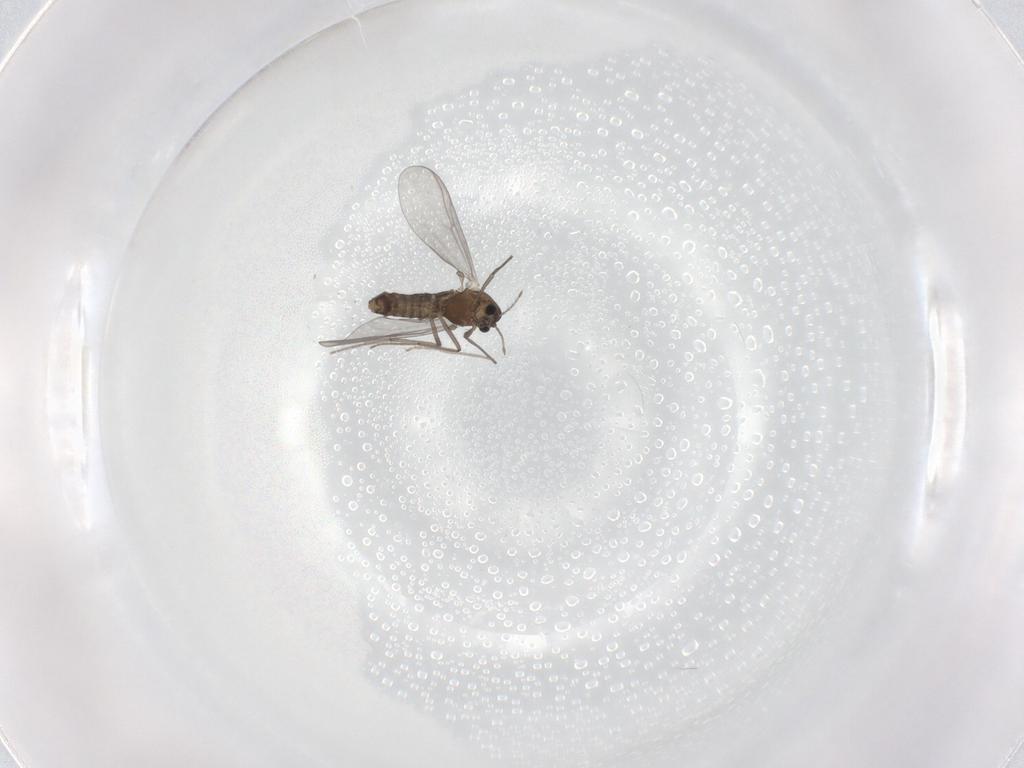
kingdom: Animalia
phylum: Arthropoda
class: Insecta
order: Diptera
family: Chironomidae
